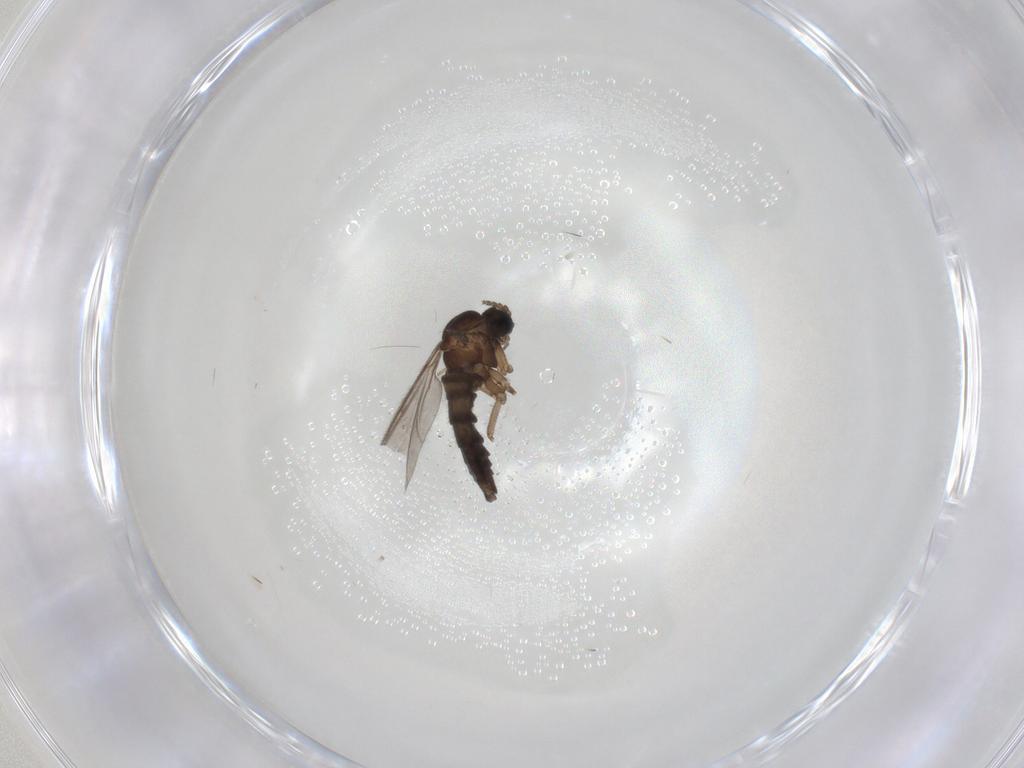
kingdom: Animalia
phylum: Arthropoda
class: Insecta
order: Diptera
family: Sciaridae
